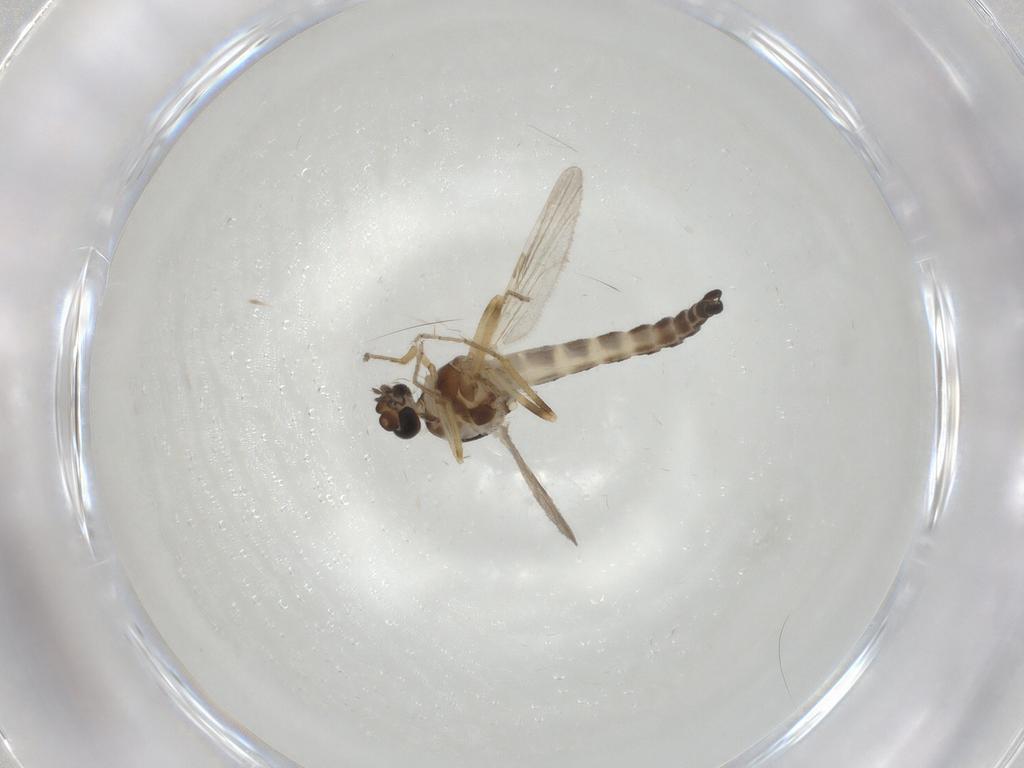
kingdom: Animalia
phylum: Arthropoda
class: Insecta
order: Diptera
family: Ceratopogonidae
